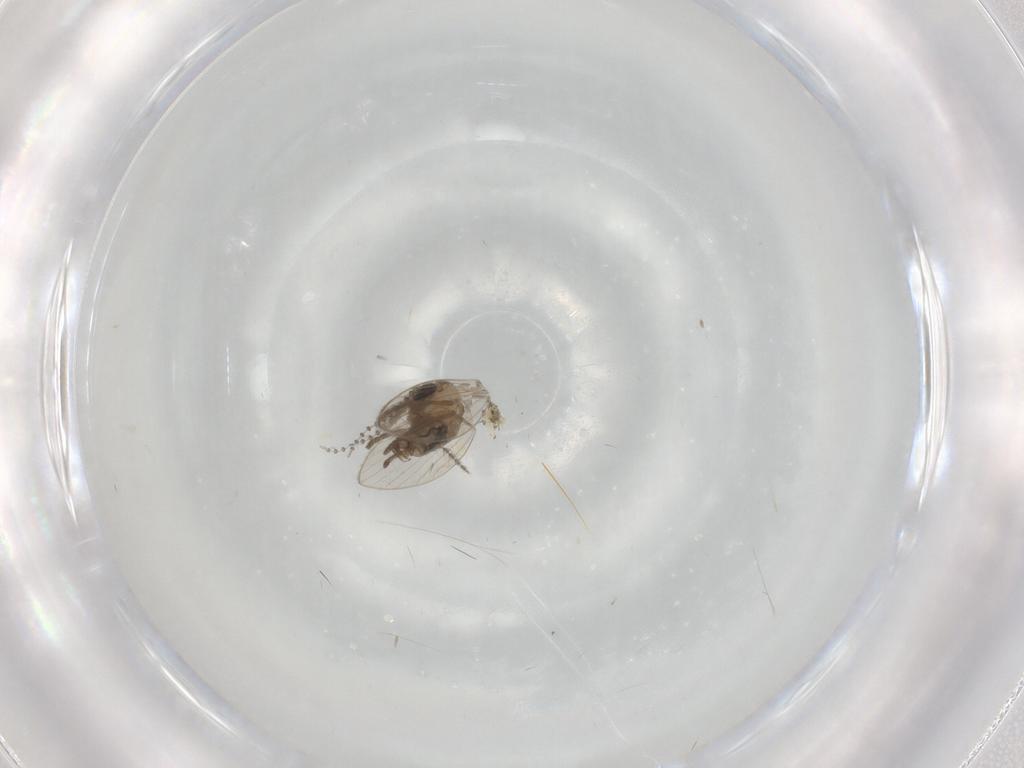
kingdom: Animalia
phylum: Arthropoda
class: Insecta
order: Diptera
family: Psychodidae
